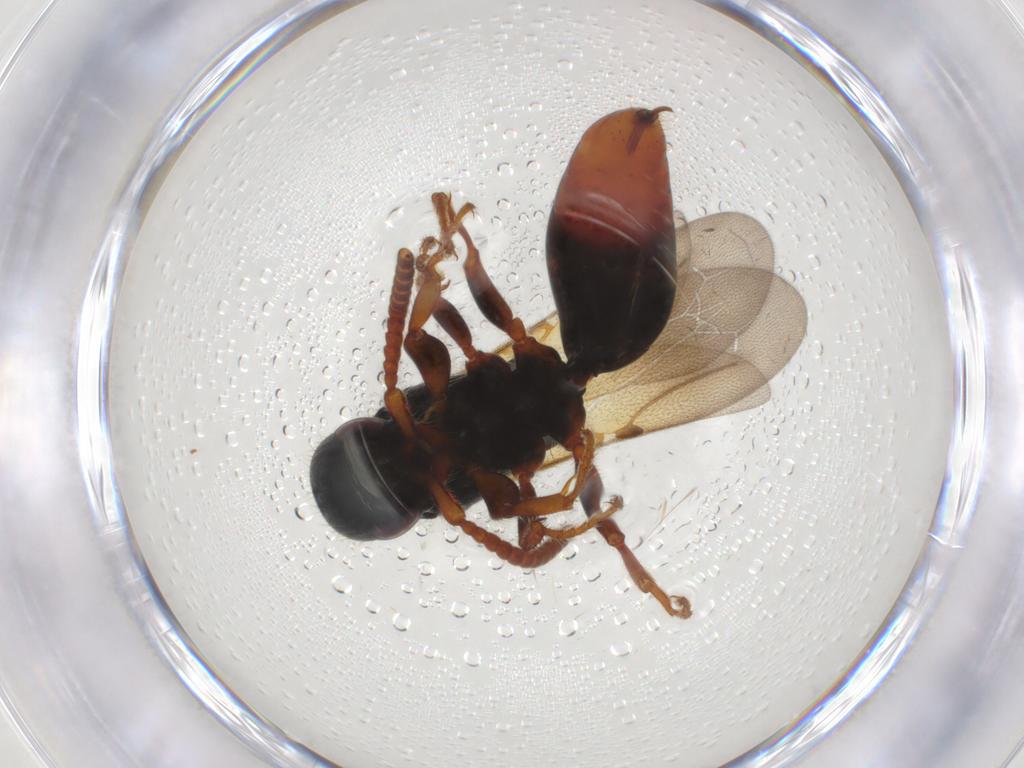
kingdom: Animalia
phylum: Arthropoda
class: Insecta
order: Hymenoptera
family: Bethylidae
